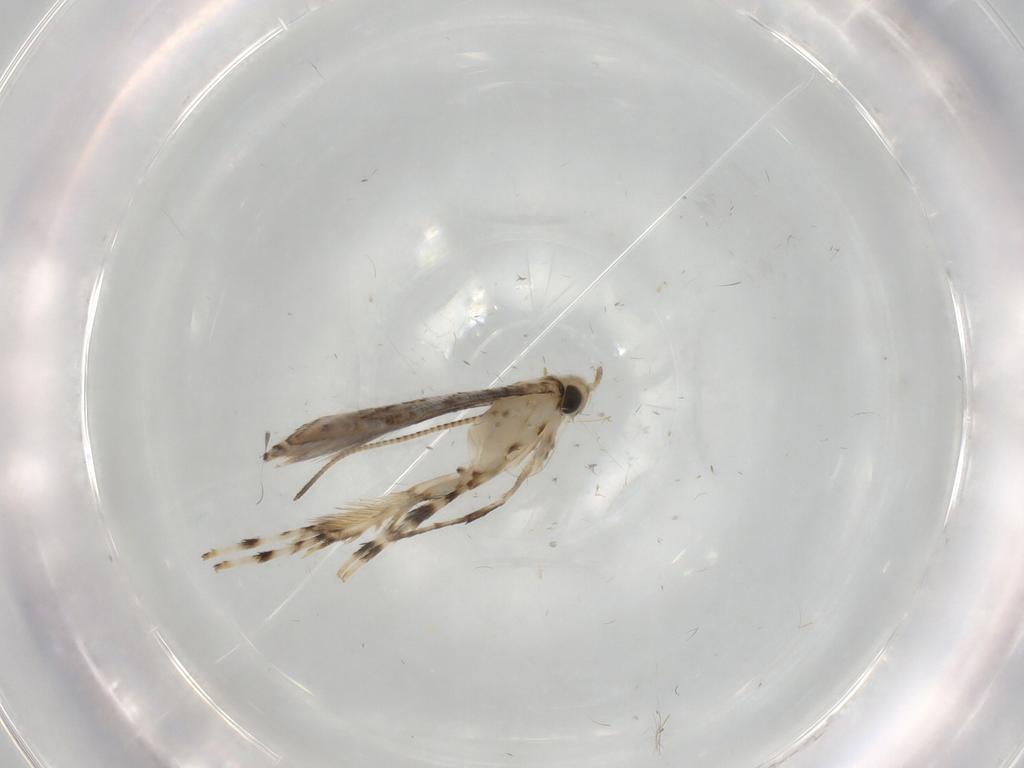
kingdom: Animalia
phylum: Arthropoda
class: Insecta
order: Lepidoptera
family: Gracillariidae
